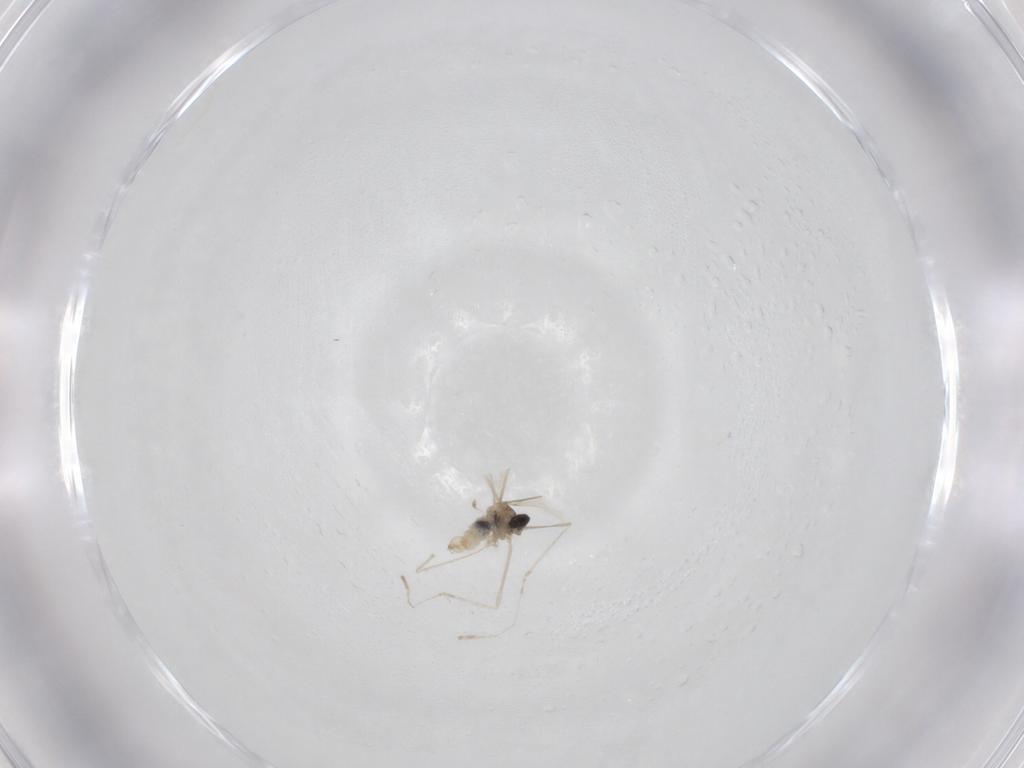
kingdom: Animalia
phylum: Arthropoda
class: Insecta
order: Diptera
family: Cecidomyiidae
